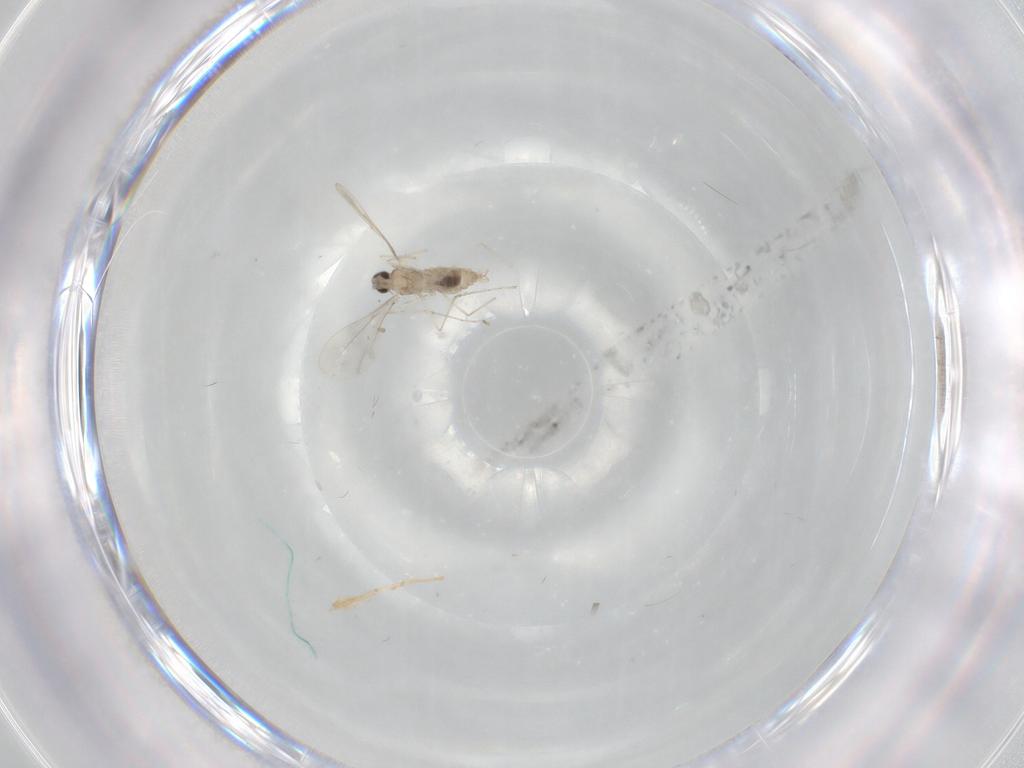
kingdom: Animalia
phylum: Arthropoda
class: Insecta
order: Diptera
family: Cecidomyiidae
